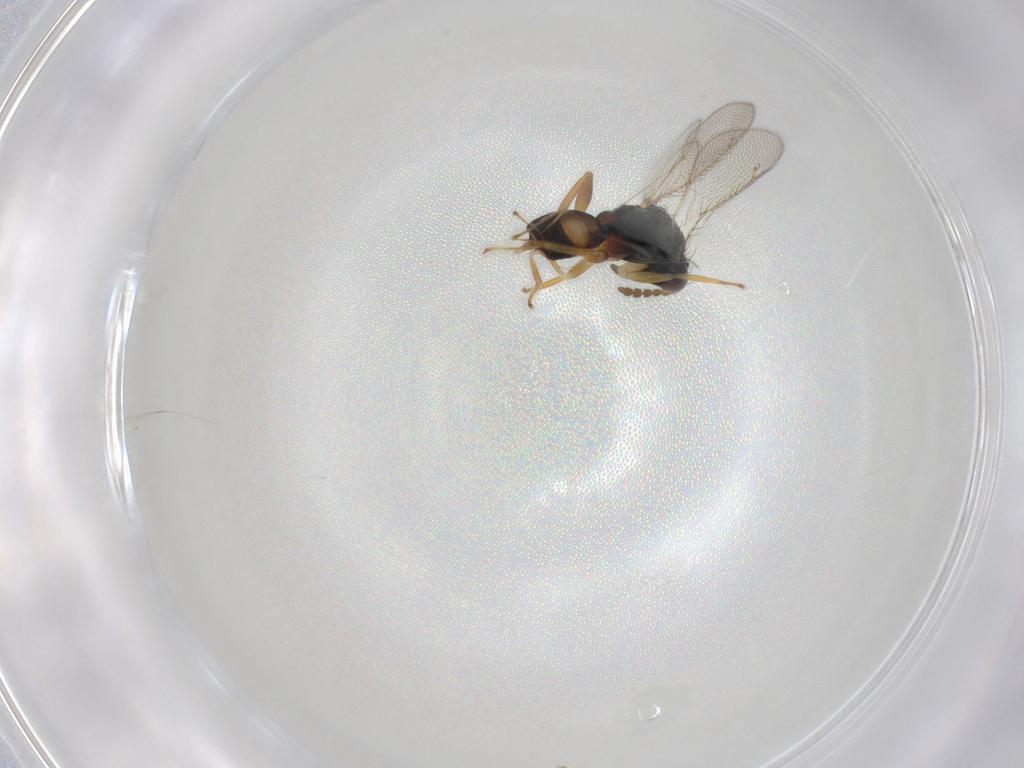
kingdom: Animalia
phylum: Arthropoda
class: Insecta
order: Hymenoptera
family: Eulophidae
